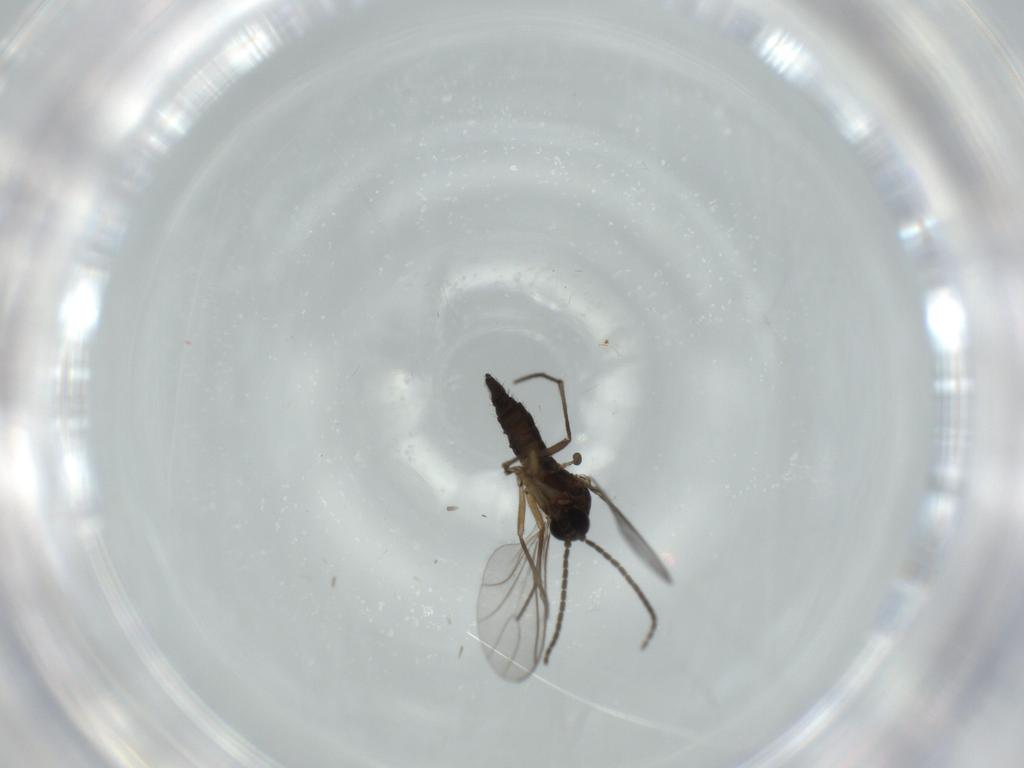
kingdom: Animalia
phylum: Arthropoda
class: Insecta
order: Diptera
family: Sciaridae
